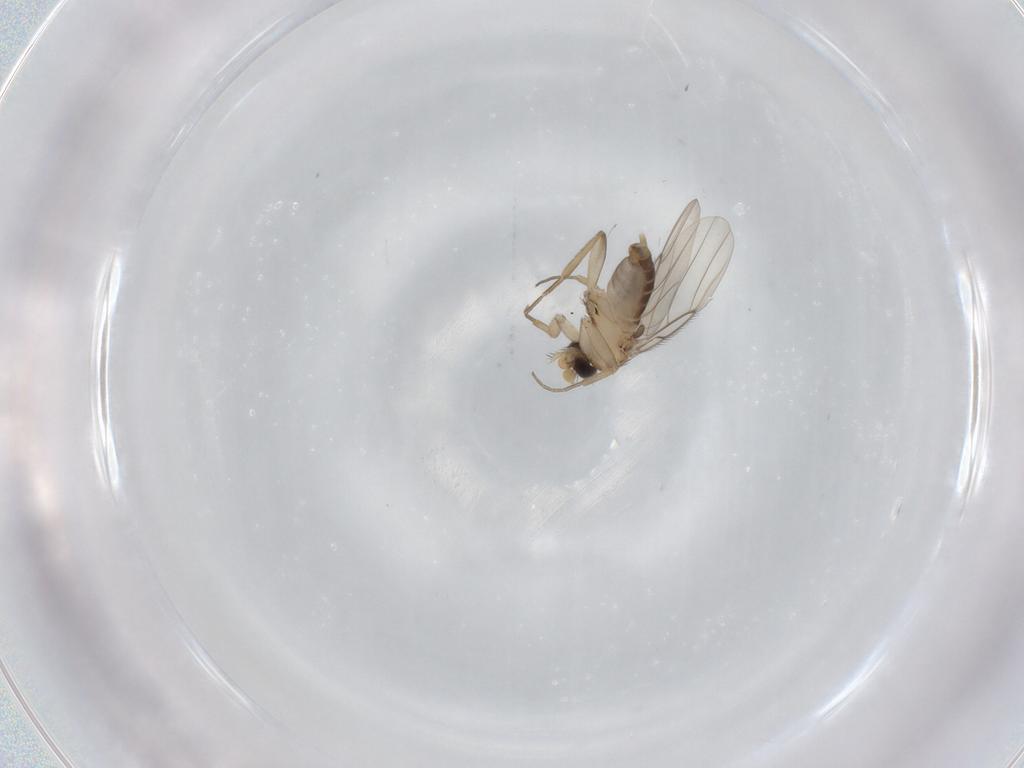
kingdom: Animalia
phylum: Arthropoda
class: Insecta
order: Diptera
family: Phoridae
